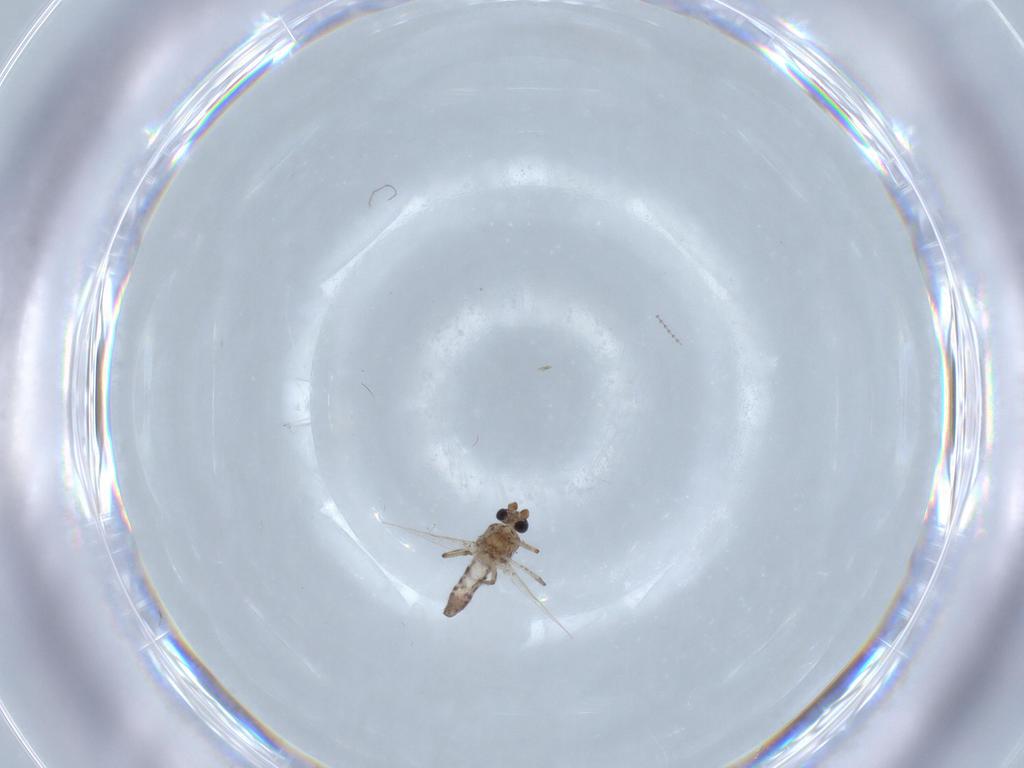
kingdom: Animalia
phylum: Arthropoda
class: Insecta
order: Diptera
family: Ceratopogonidae
